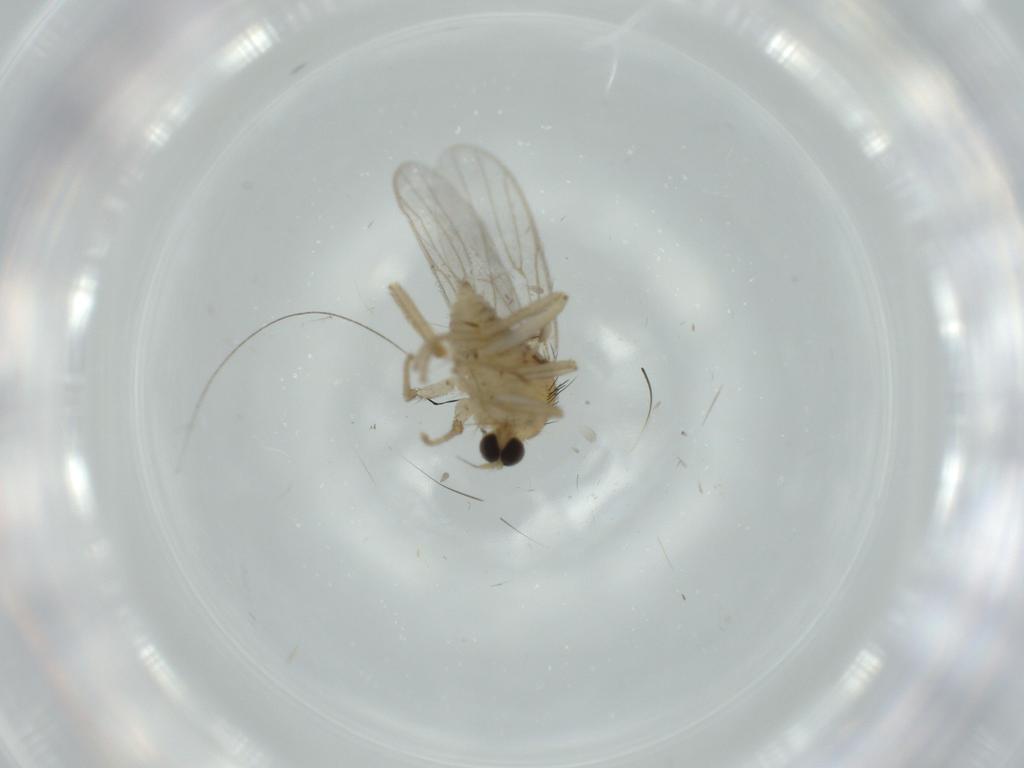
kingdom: Animalia
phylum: Arthropoda
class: Insecta
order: Diptera
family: Hybotidae
